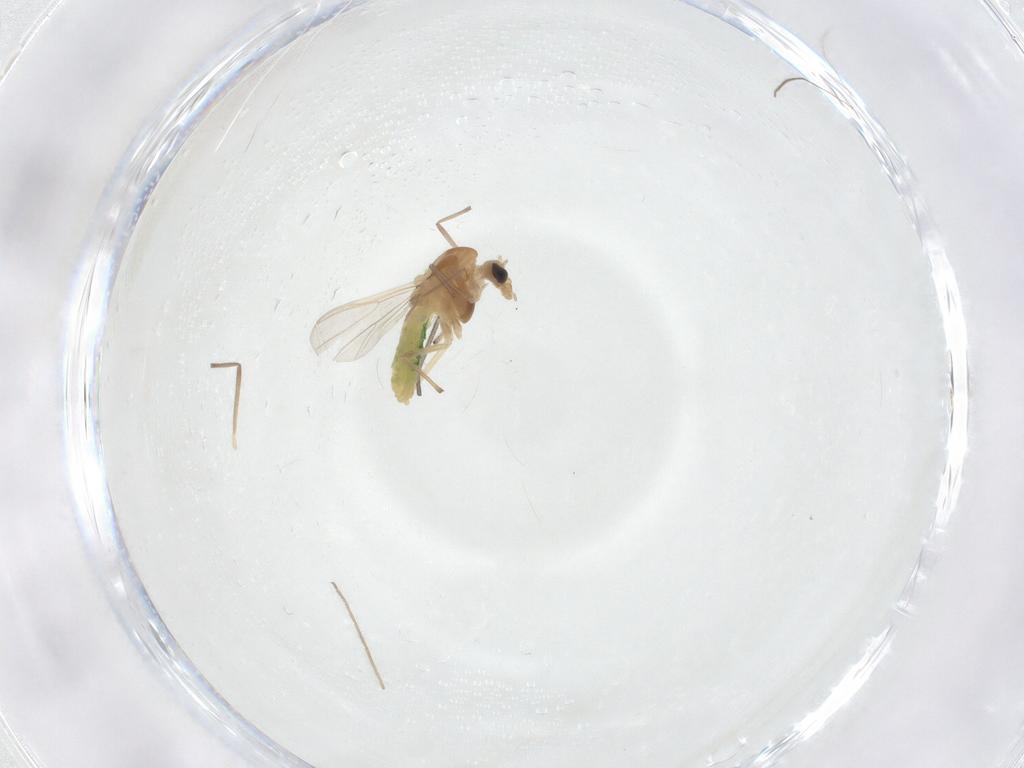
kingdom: Animalia
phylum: Arthropoda
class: Insecta
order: Diptera
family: Chironomidae
